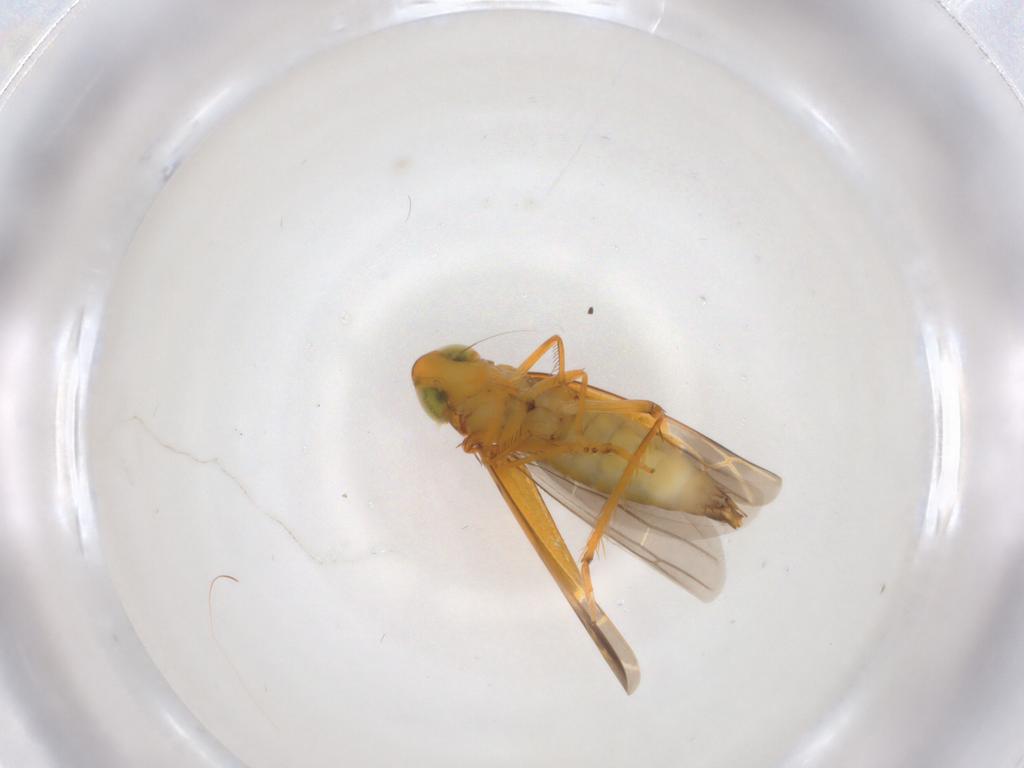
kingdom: Animalia
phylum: Arthropoda
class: Insecta
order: Hemiptera
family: Cicadellidae
